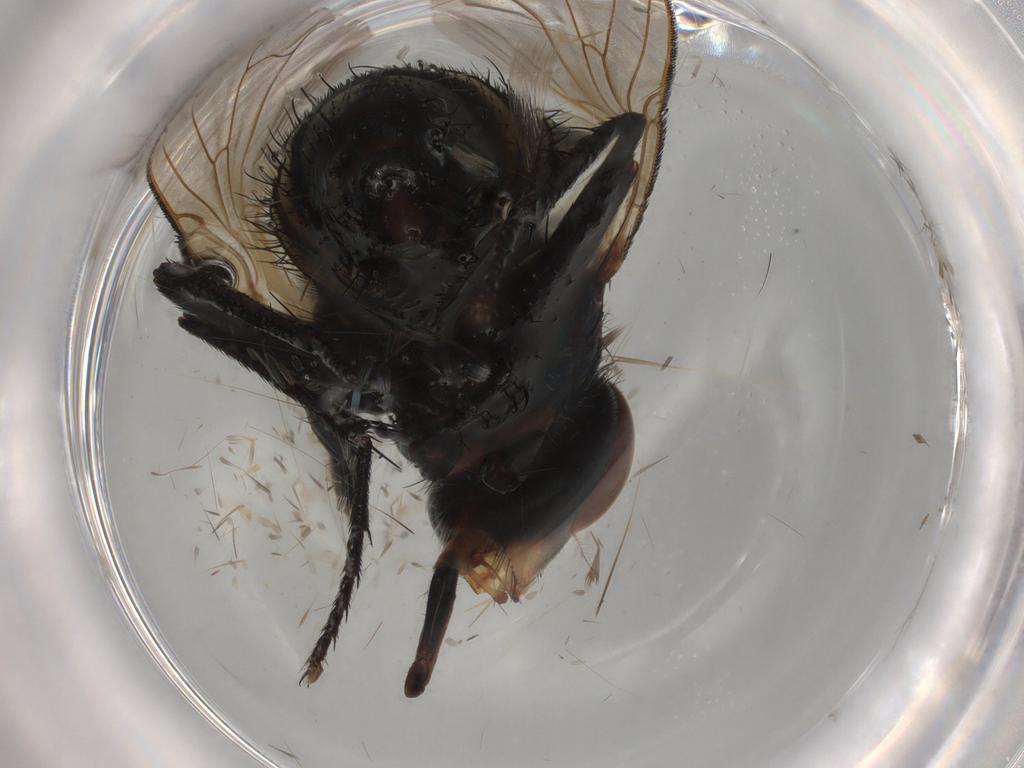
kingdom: Animalia
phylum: Arthropoda
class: Insecta
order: Diptera
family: Calliphoridae
